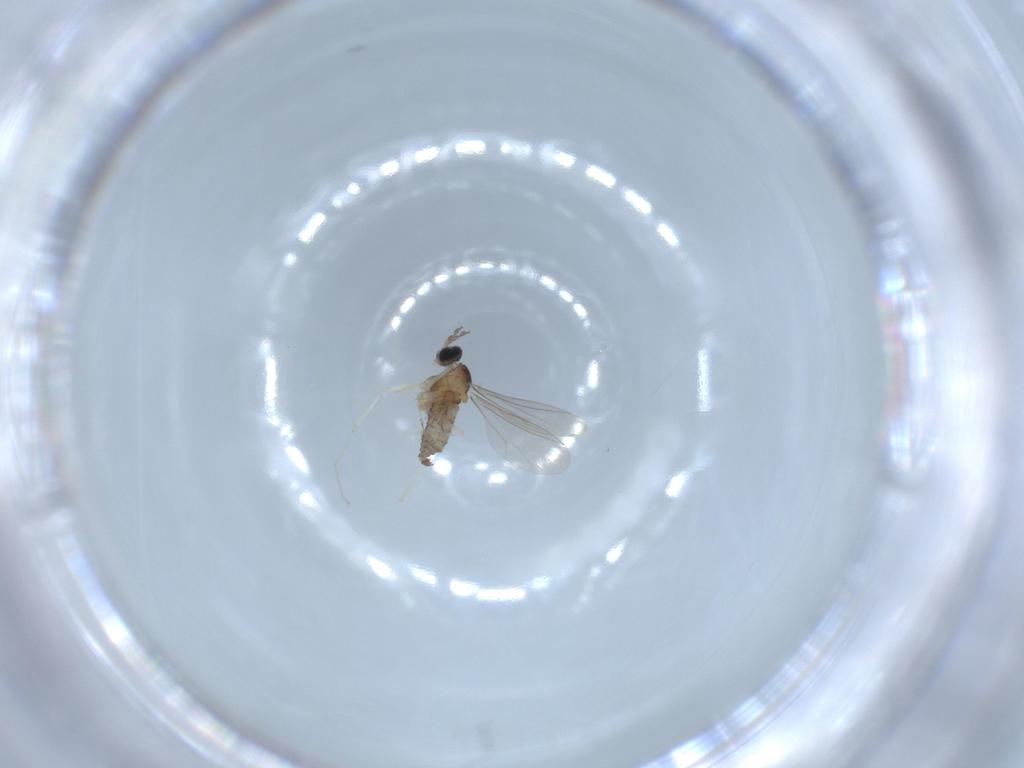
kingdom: Animalia
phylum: Arthropoda
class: Insecta
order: Diptera
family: Phoridae
